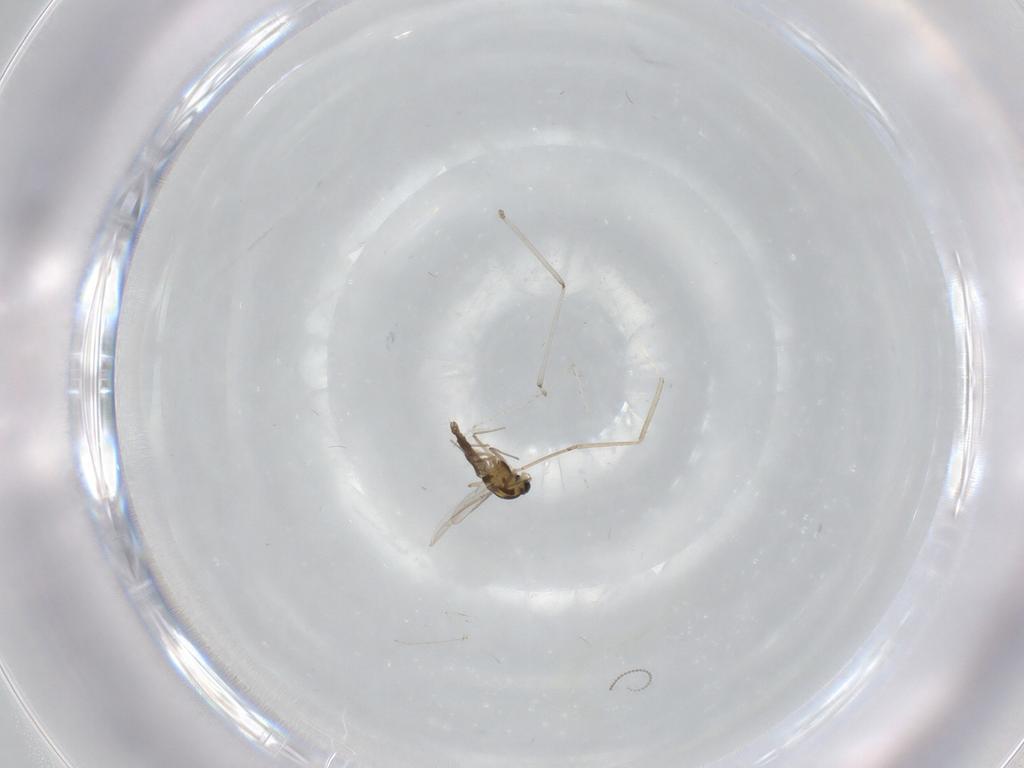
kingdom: Animalia
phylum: Arthropoda
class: Insecta
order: Diptera
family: Chironomidae
